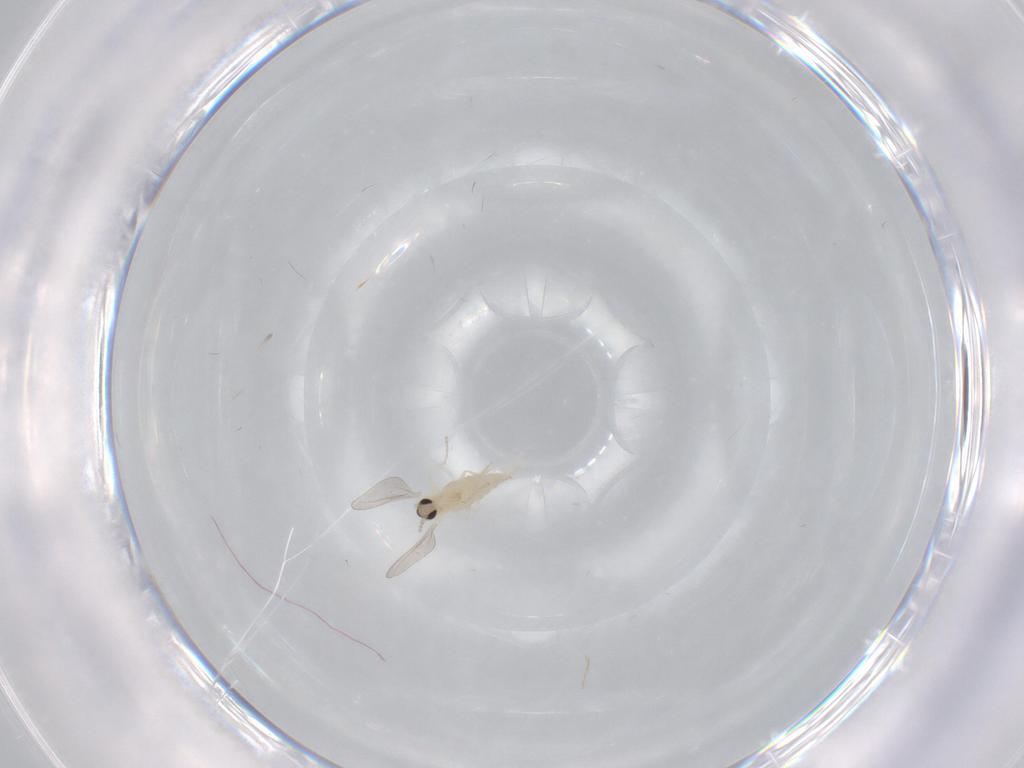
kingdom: Animalia
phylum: Arthropoda
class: Insecta
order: Diptera
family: Cecidomyiidae
